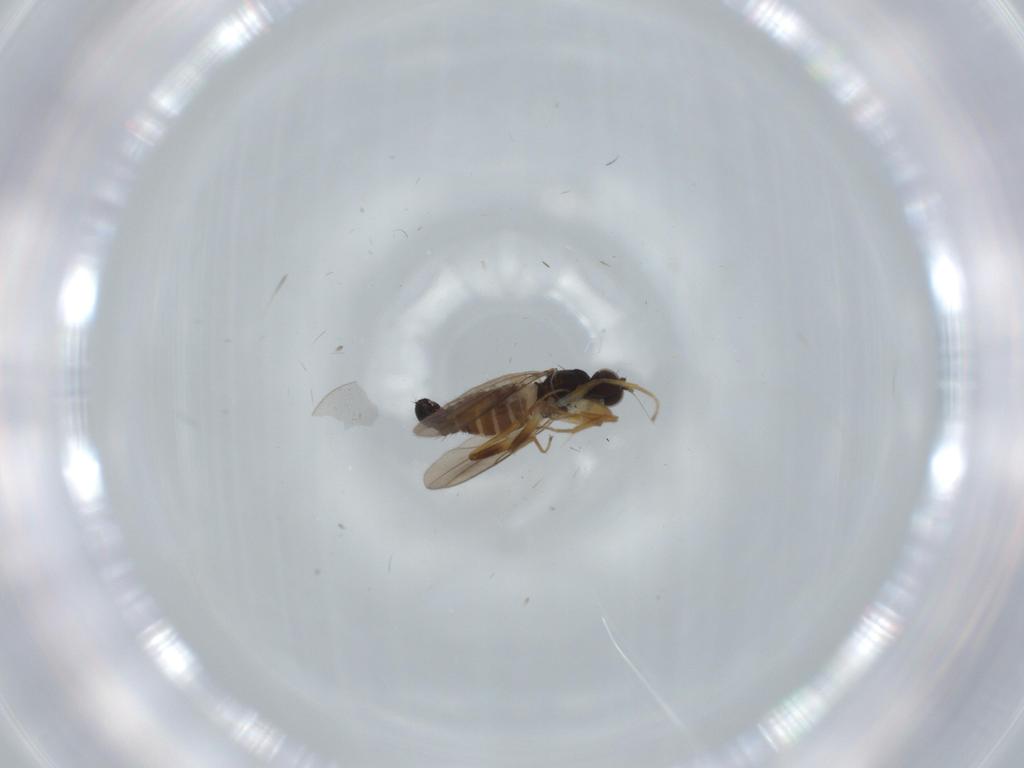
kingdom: Animalia
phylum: Arthropoda
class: Insecta
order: Diptera
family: Hybotidae
